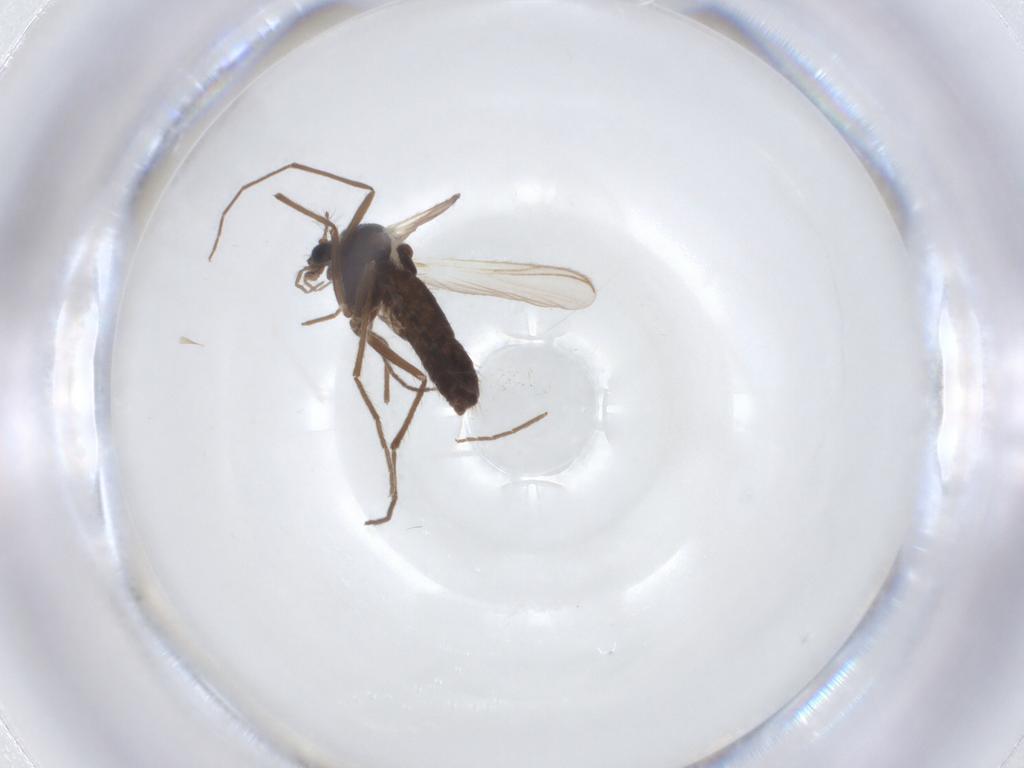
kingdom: Animalia
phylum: Arthropoda
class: Insecta
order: Diptera
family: Chironomidae
